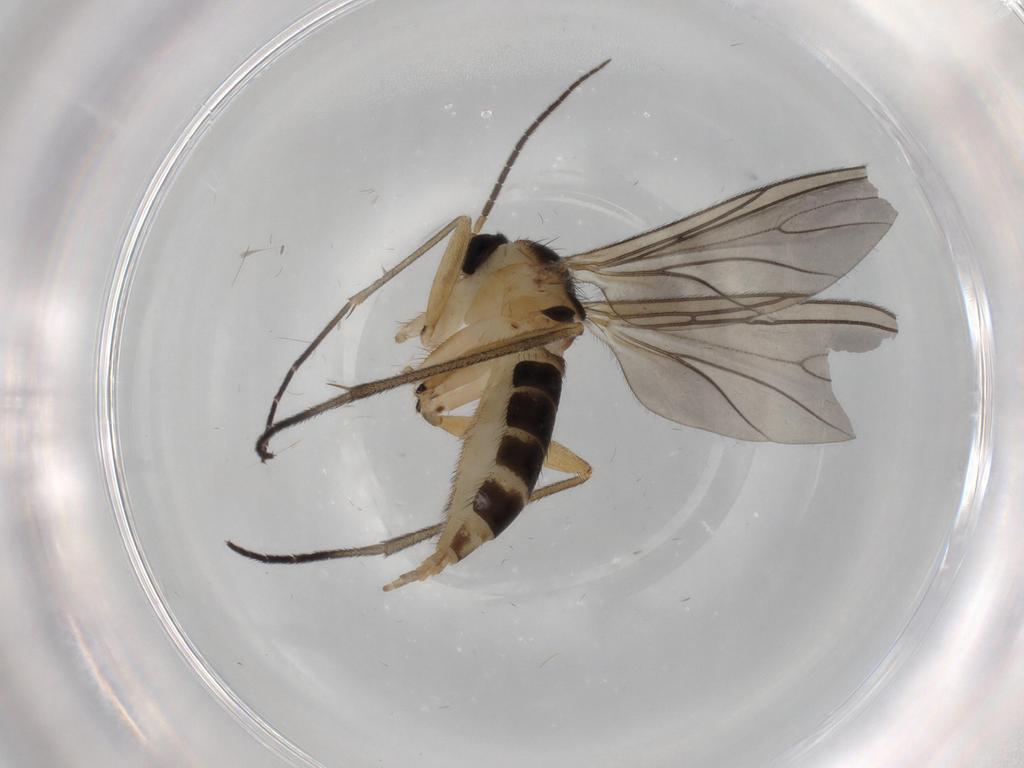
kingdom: Animalia
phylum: Arthropoda
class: Insecta
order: Diptera
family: Sciaridae
